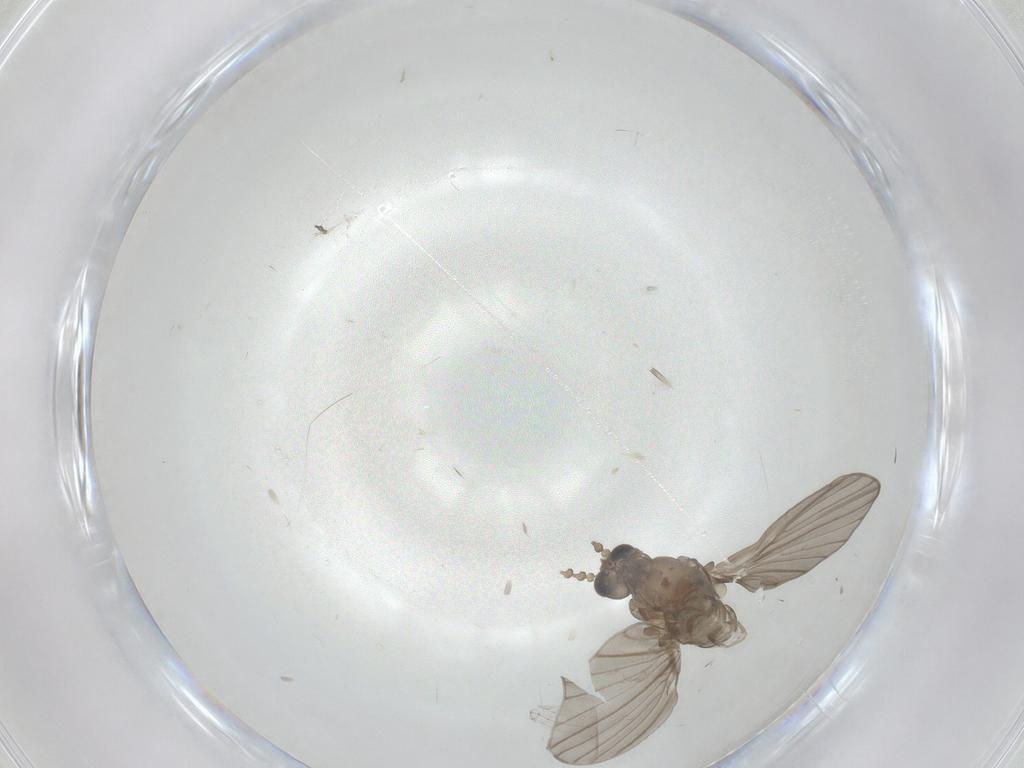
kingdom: Animalia
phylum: Arthropoda
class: Insecta
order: Diptera
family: Psychodidae
